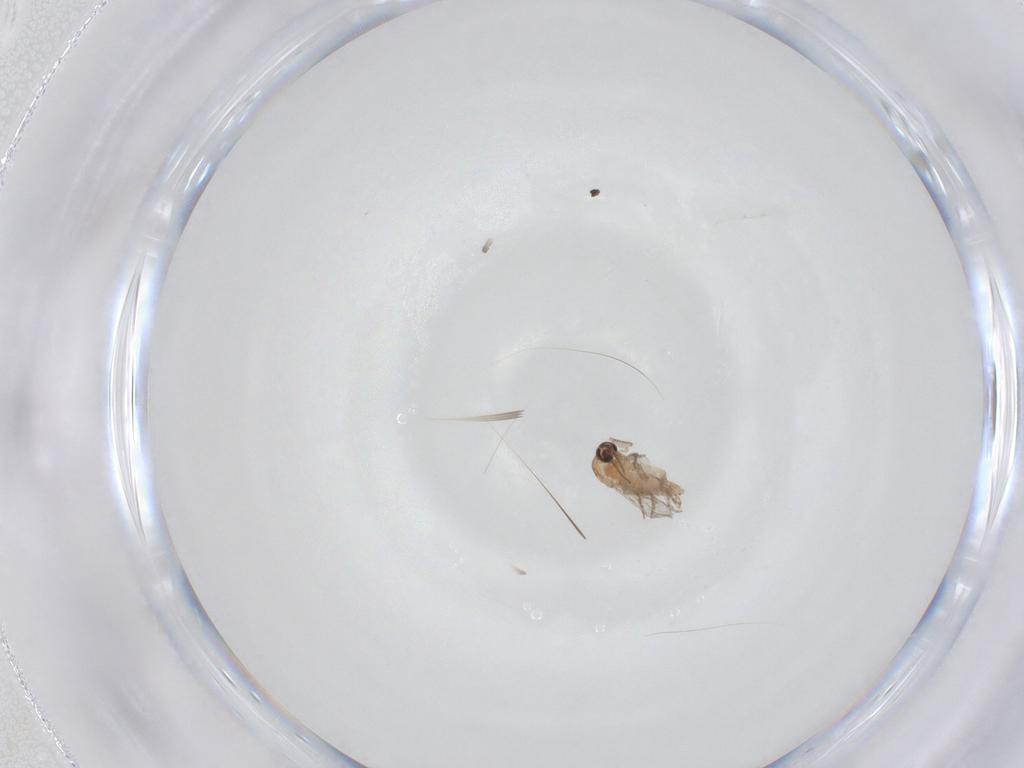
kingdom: Animalia
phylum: Arthropoda
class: Insecta
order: Diptera
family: Ceratopogonidae
